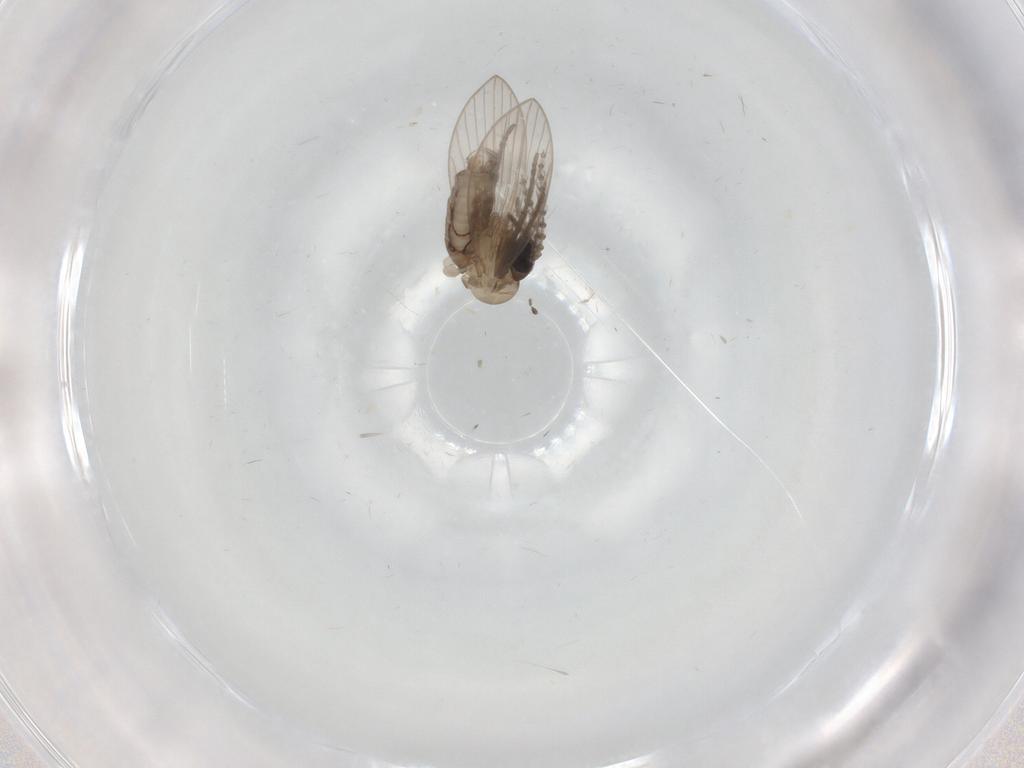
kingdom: Animalia
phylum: Arthropoda
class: Insecta
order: Diptera
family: Psychodidae
